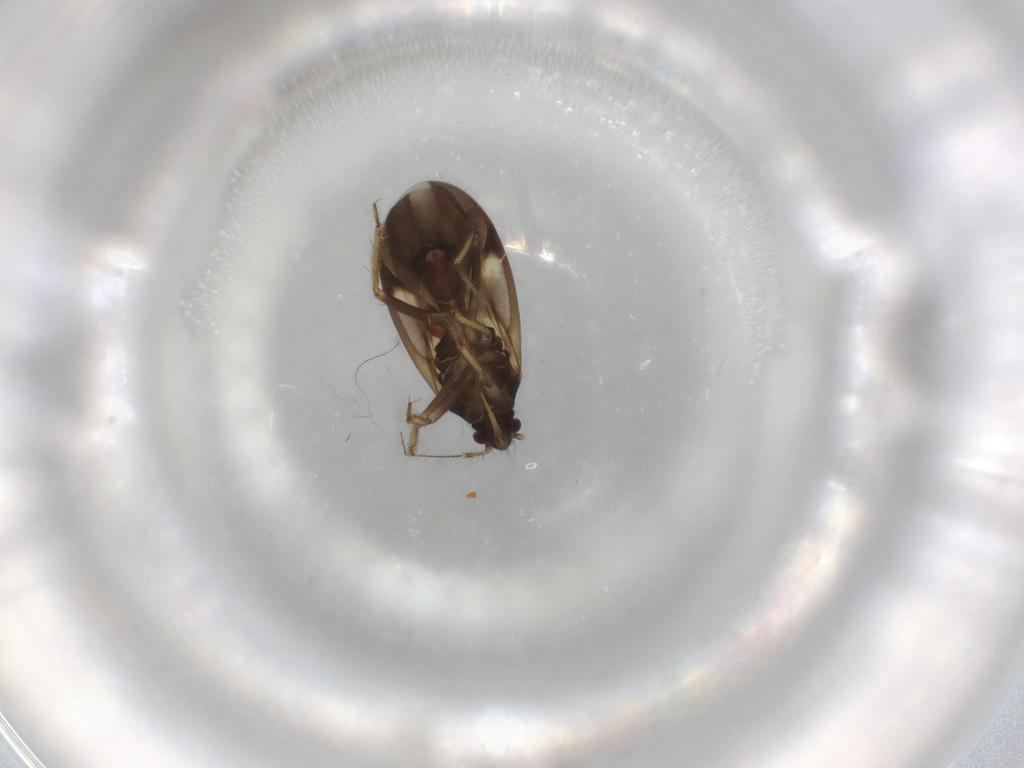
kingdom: Animalia
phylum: Arthropoda
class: Insecta
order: Hemiptera
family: Ceratocombidae
